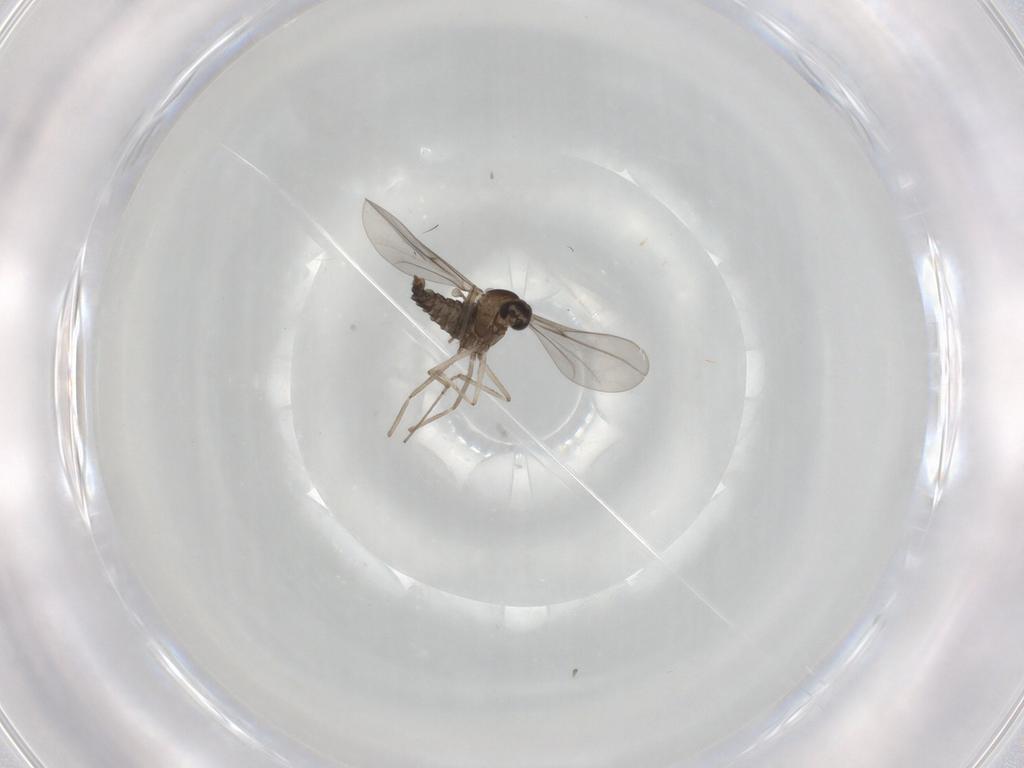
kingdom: Animalia
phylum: Arthropoda
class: Insecta
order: Diptera
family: Cecidomyiidae
